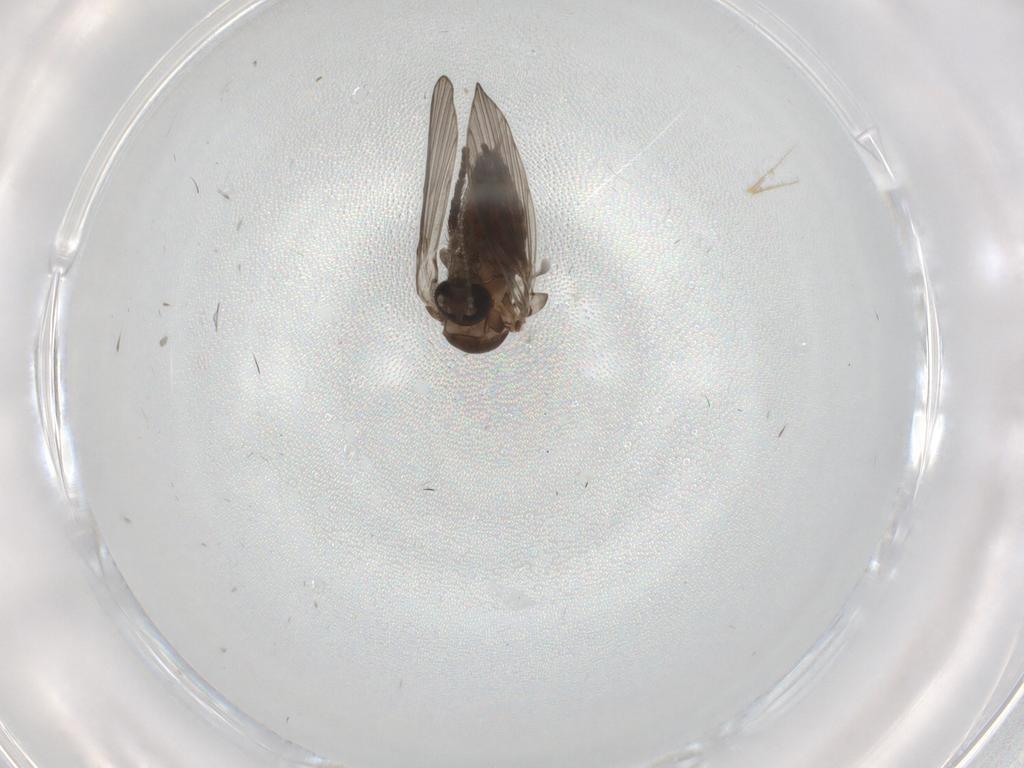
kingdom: Animalia
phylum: Arthropoda
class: Insecta
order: Diptera
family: Psychodidae
